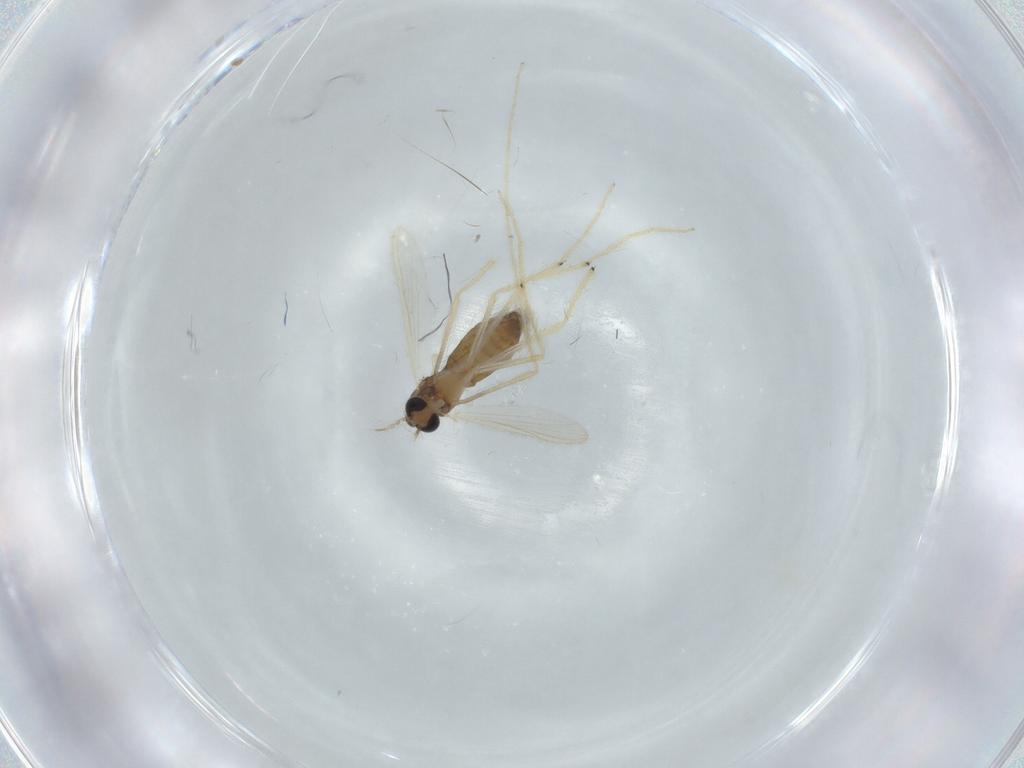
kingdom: Animalia
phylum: Arthropoda
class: Insecta
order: Diptera
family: Chironomidae
